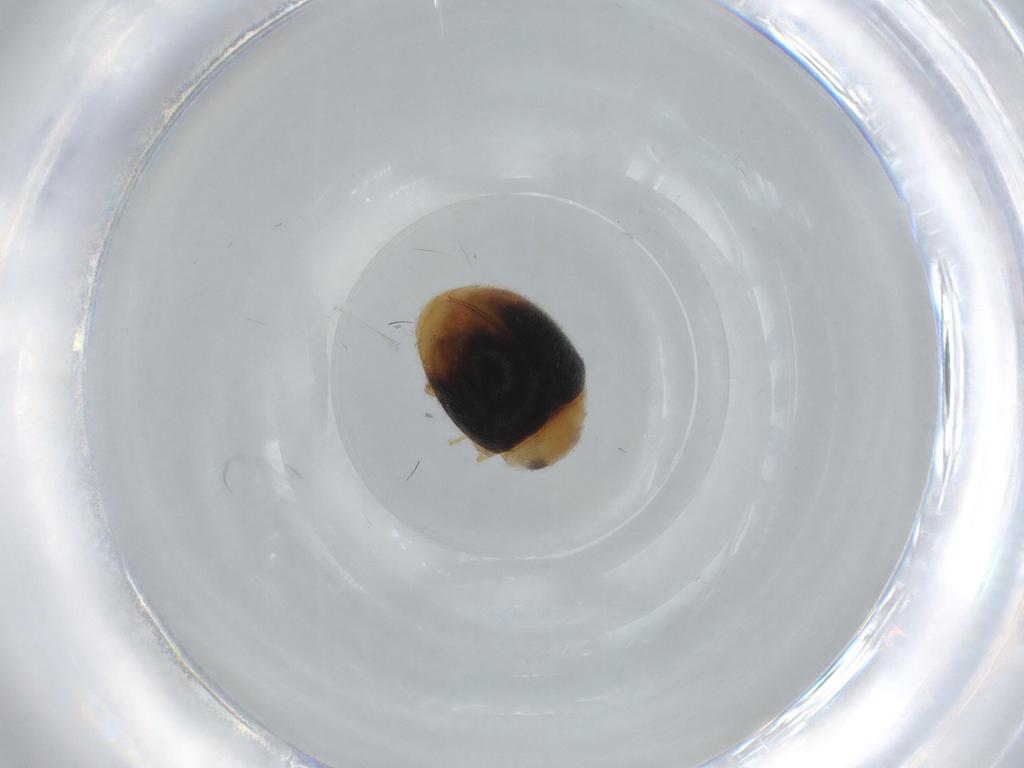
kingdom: Animalia
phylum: Arthropoda
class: Insecta
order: Coleoptera
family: Coccinellidae
